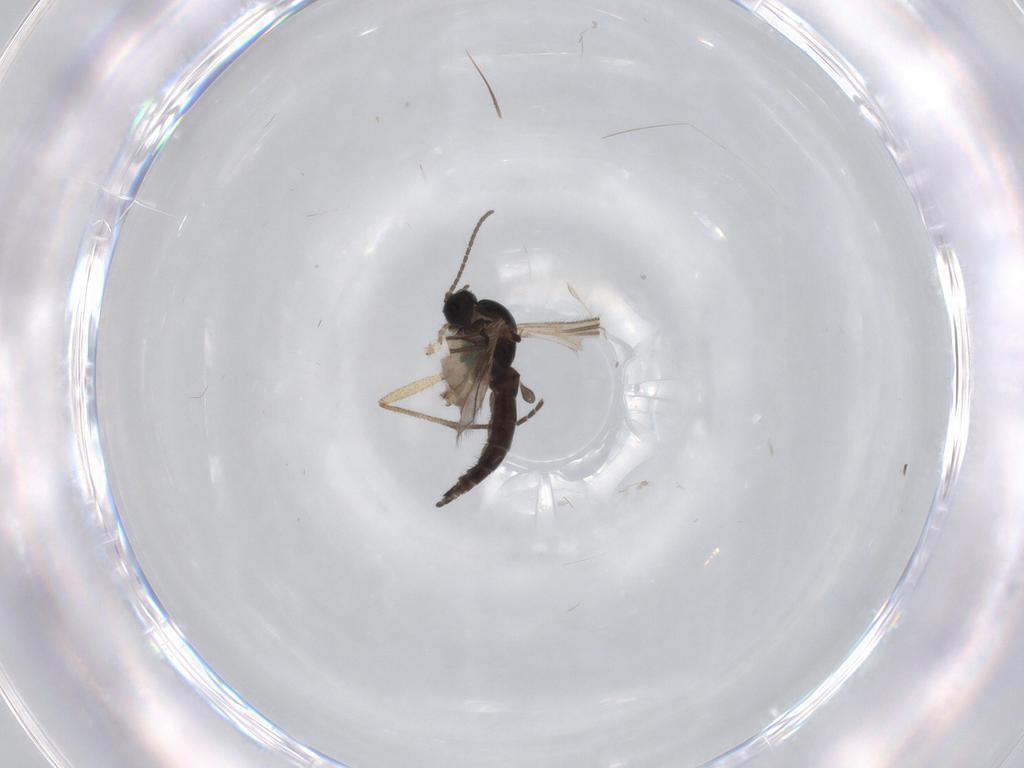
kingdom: Animalia
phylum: Arthropoda
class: Insecta
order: Diptera
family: Sciaridae
